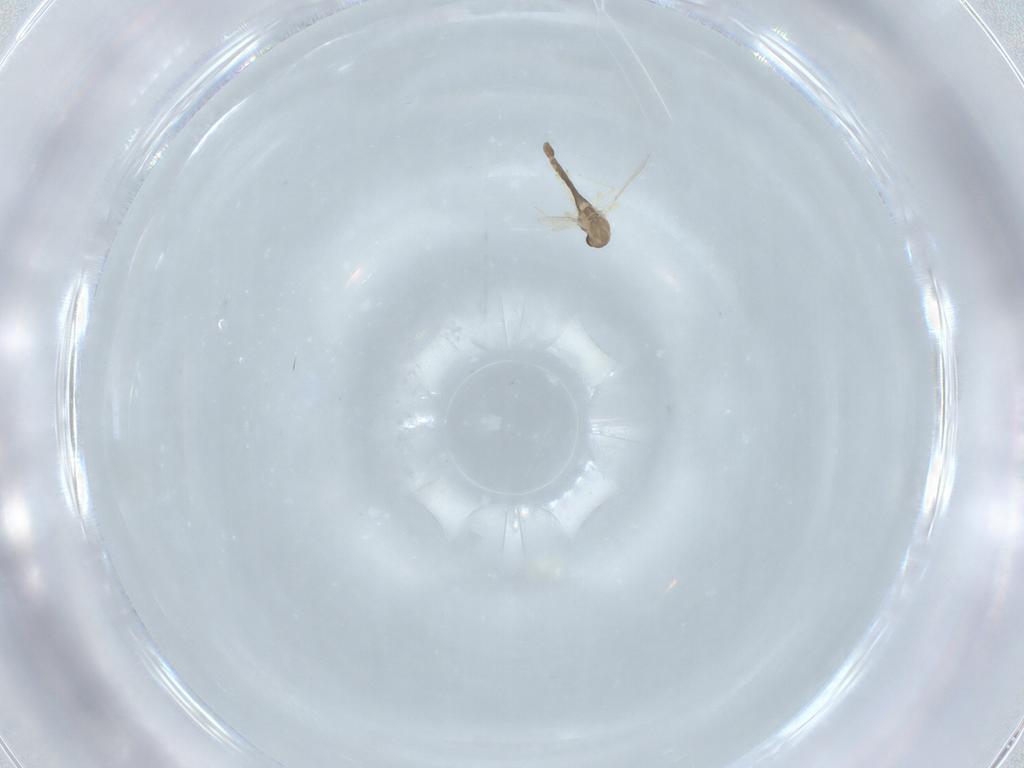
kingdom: Animalia
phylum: Arthropoda
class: Insecta
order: Diptera
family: Chironomidae
